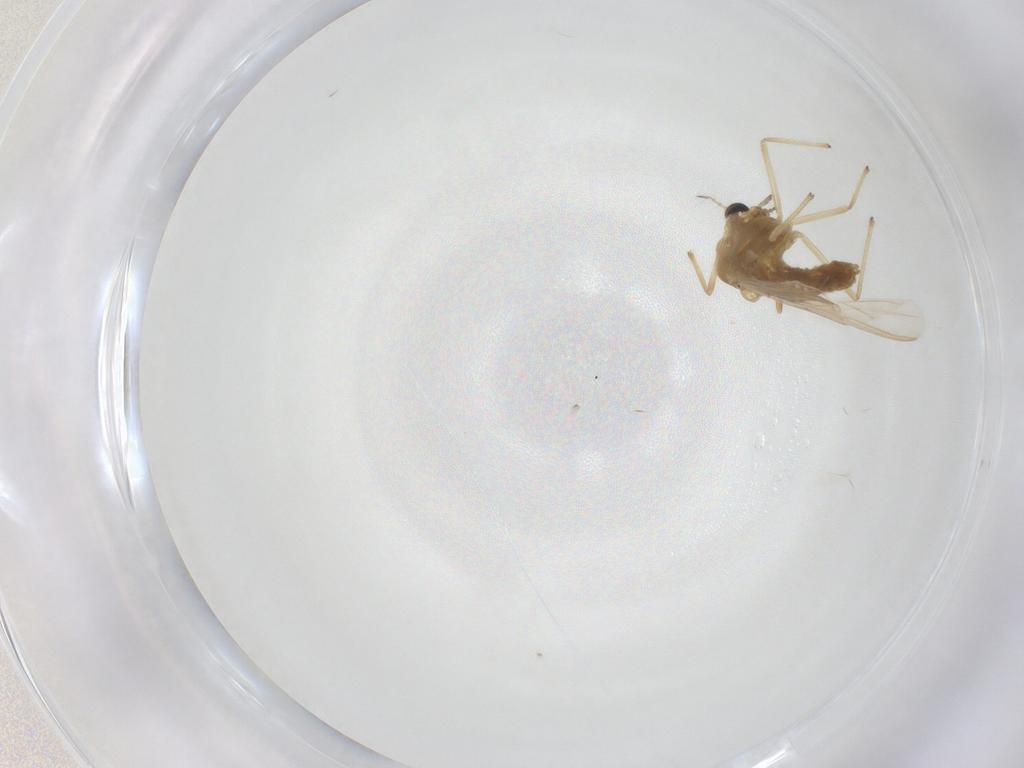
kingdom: Animalia
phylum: Arthropoda
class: Insecta
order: Diptera
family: Chironomidae
